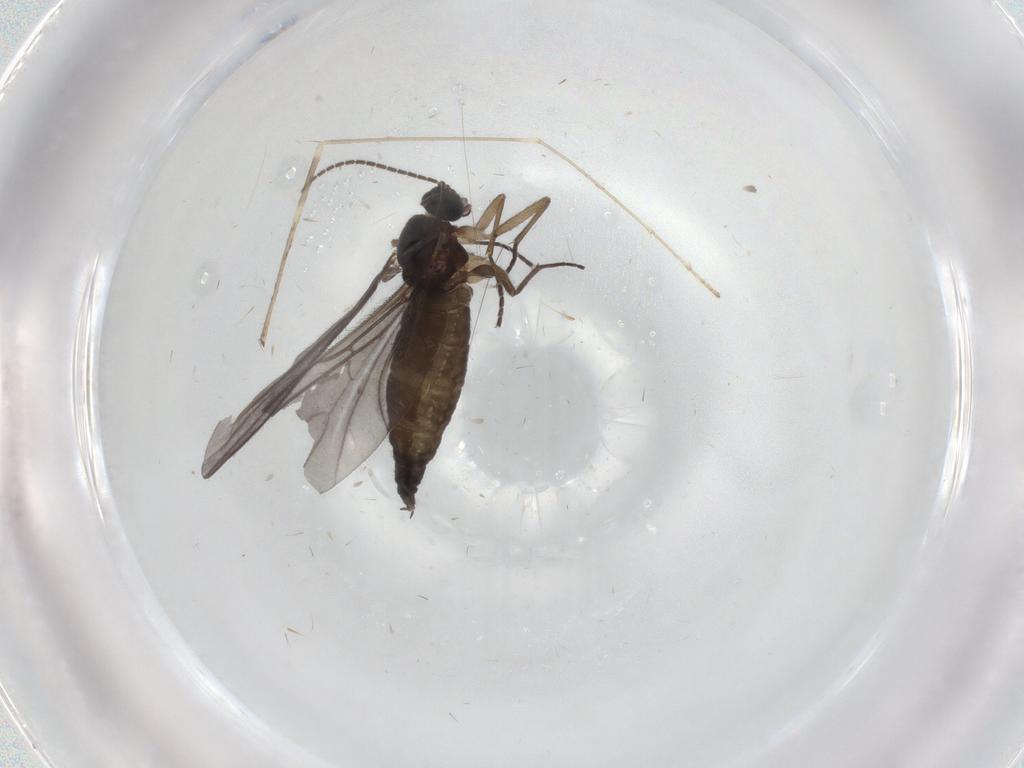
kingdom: Animalia
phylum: Arthropoda
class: Insecta
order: Diptera
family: Sciaridae
